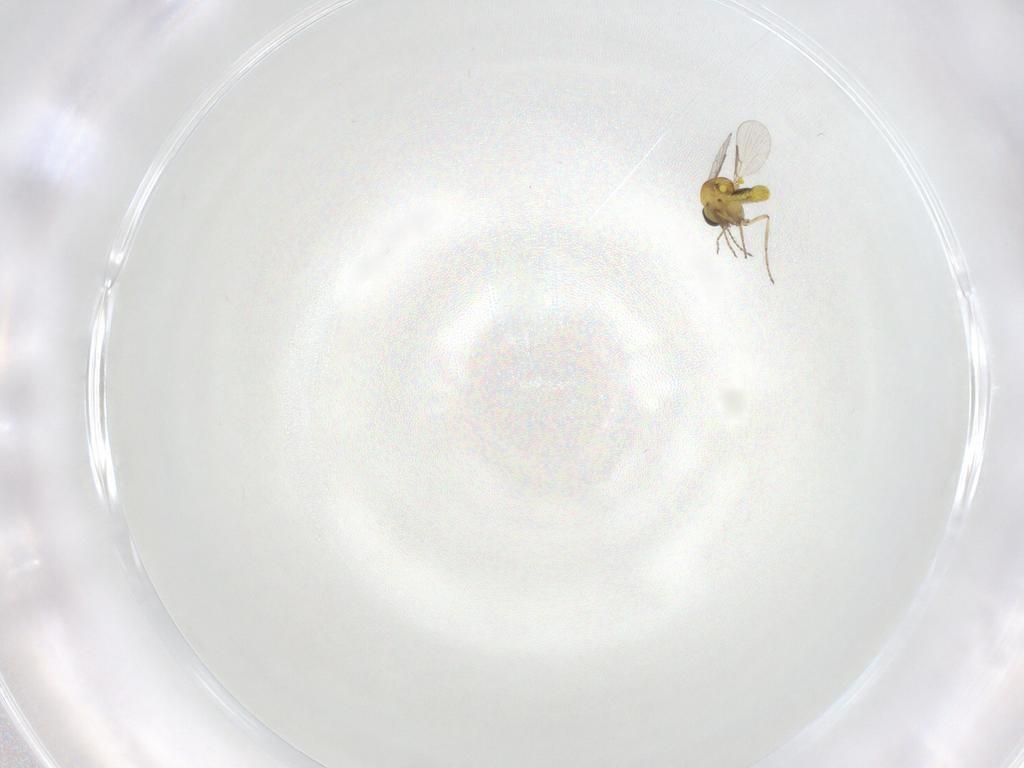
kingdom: Animalia
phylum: Arthropoda
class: Insecta
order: Diptera
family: Ceratopogonidae
